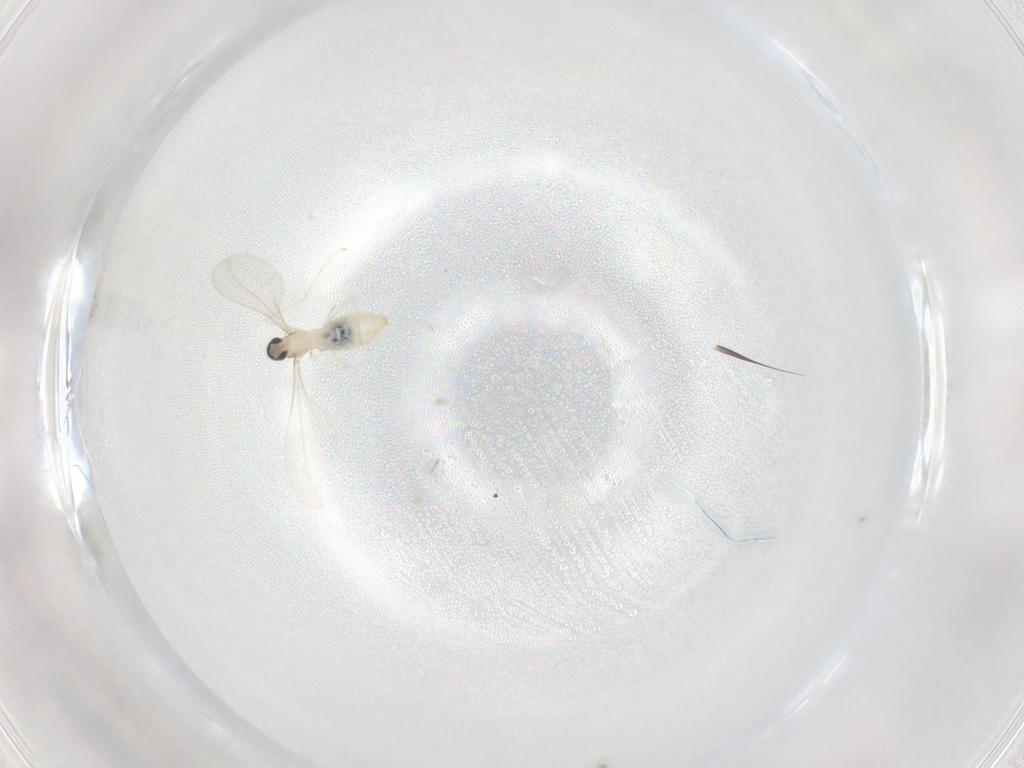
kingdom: Animalia
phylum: Arthropoda
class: Insecta
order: Diptera
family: Cecidomyiidae
